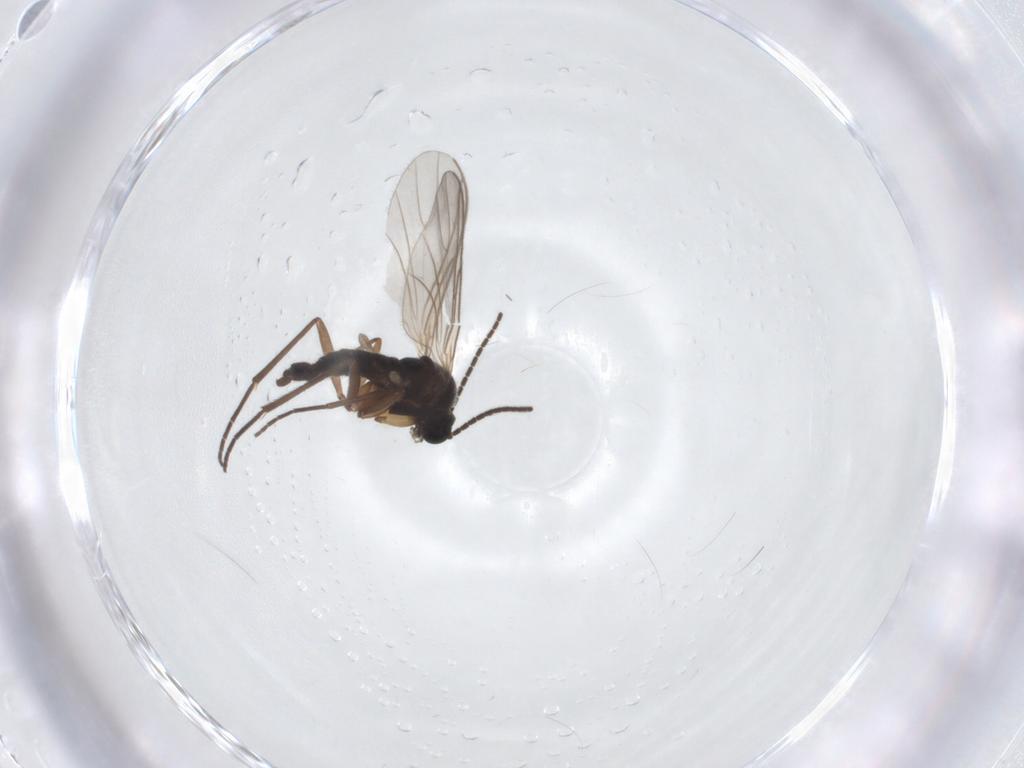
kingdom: Animalia
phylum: Arthropoda
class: Insecta
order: Diptera
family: Sciaridae
